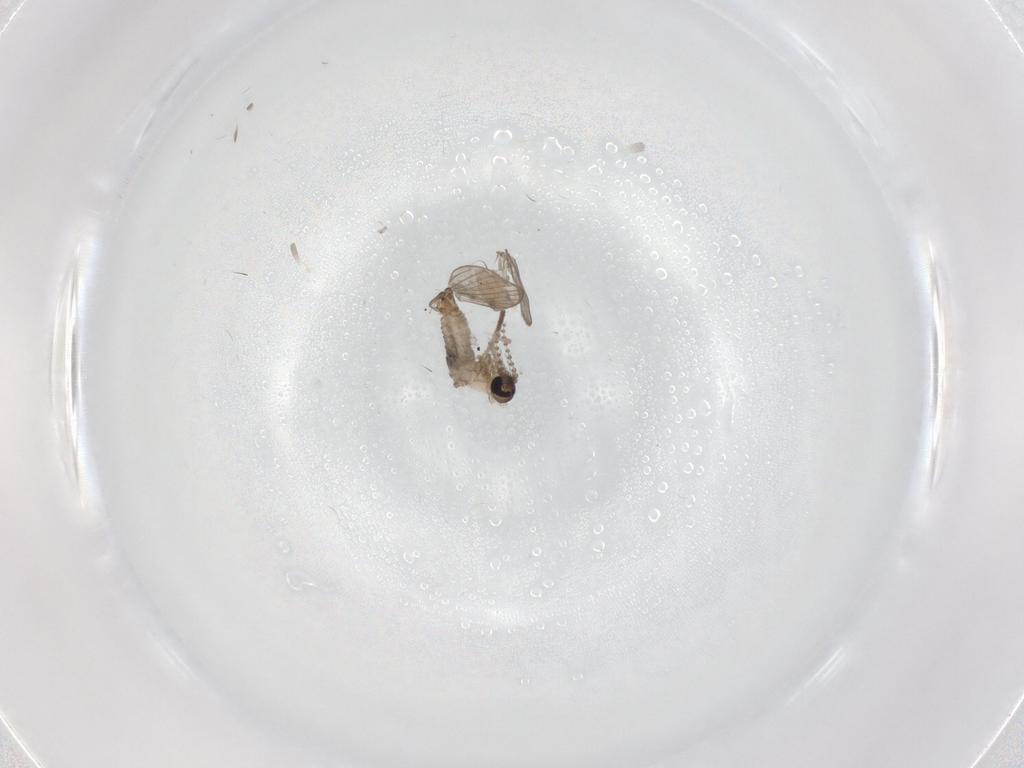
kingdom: Animalia
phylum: Arthropoda
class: Insecta
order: Diptera
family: Psychodidae
